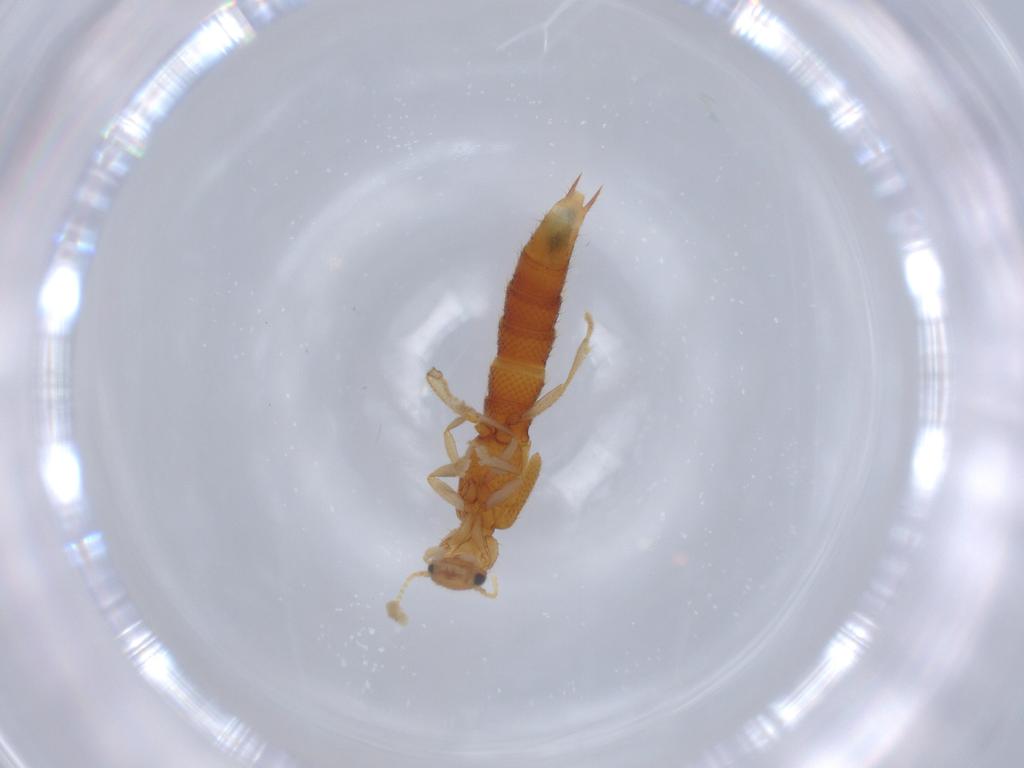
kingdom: Animalia
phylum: Arthropoda
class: Insecta
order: Coleoptera
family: Staphylinidae
